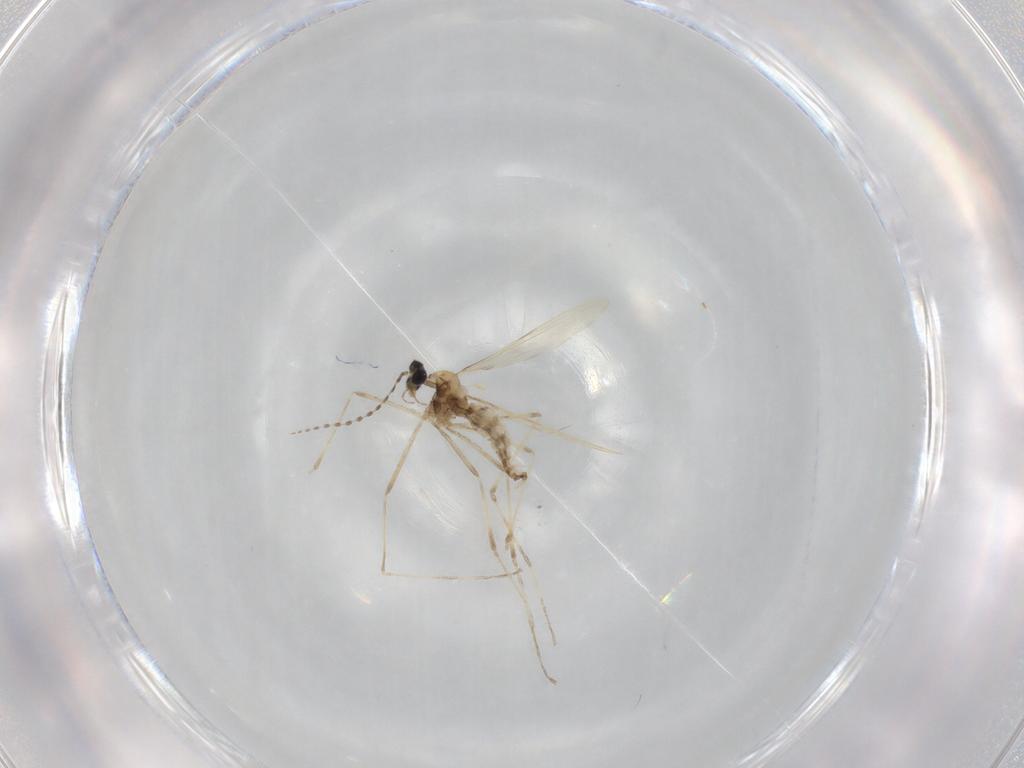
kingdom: Animalia
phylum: Arthropoda
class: Insecta
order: Diptera
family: Cecidomyiidae
